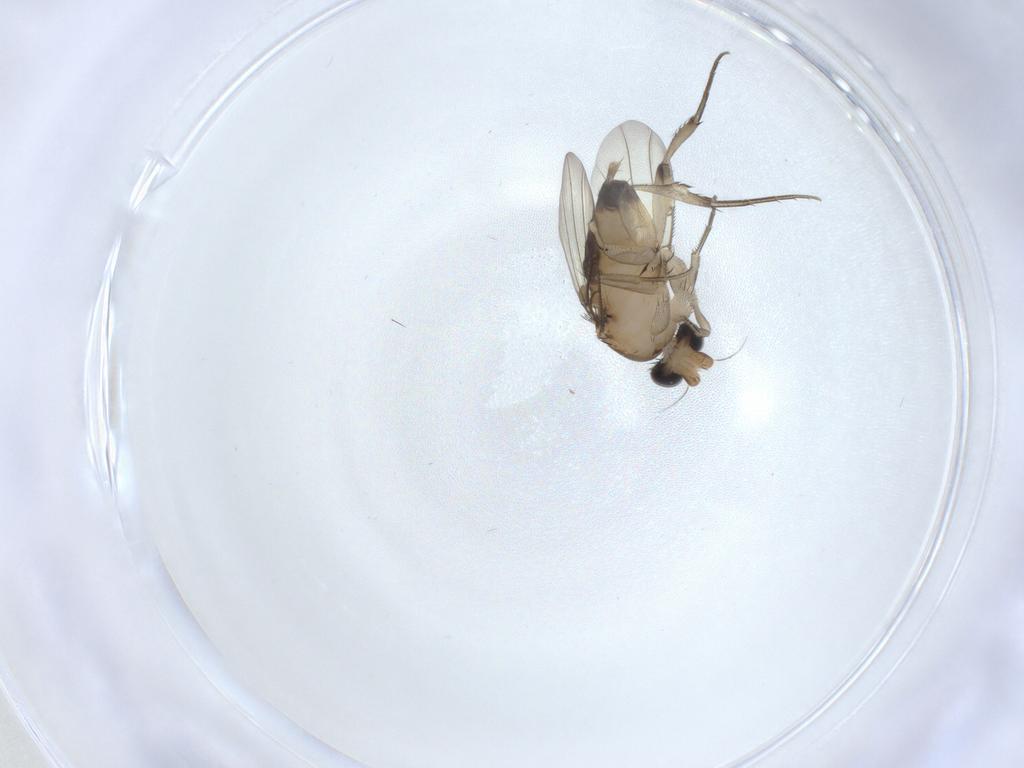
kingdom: Animalia
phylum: Arthropoda
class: Insecta
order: Diptera
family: Phoridae
